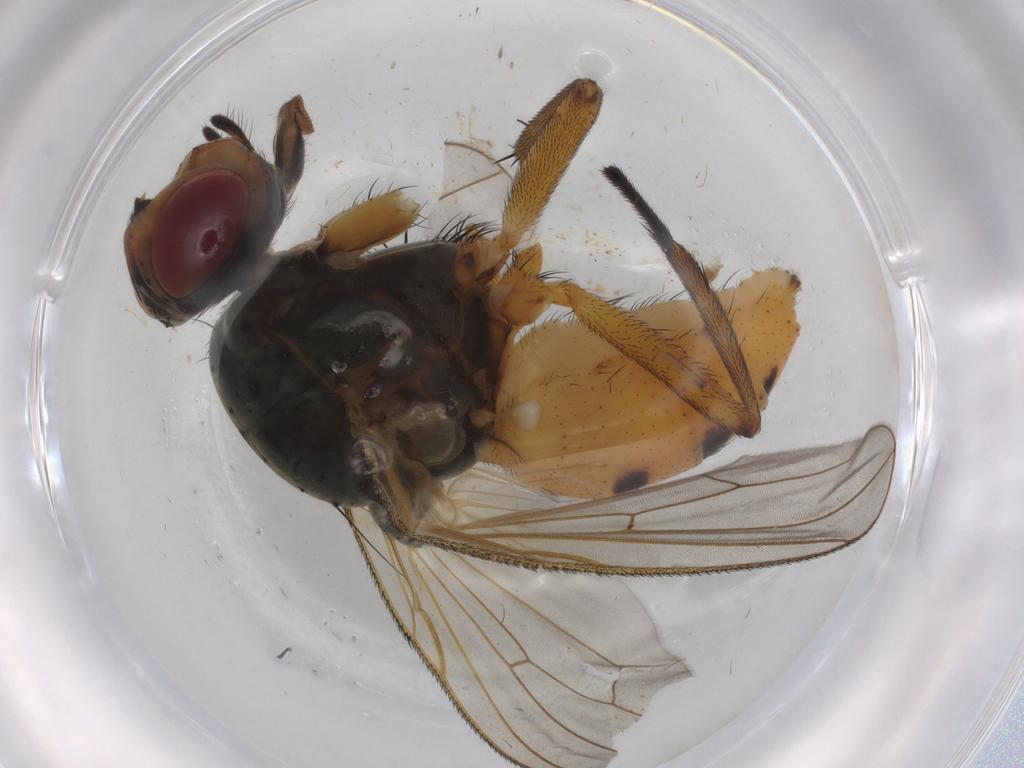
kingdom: Animalia
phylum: Arthropoda
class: Insecta
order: Diptera
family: Anthomyiidae
